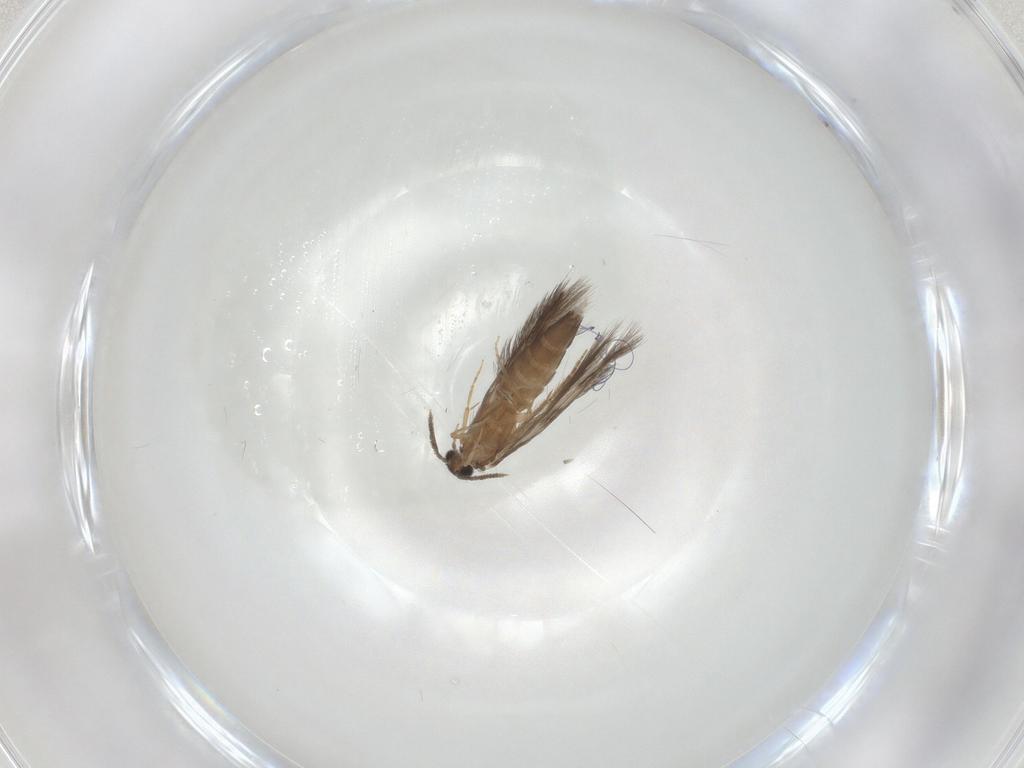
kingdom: Animalia
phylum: Arthropoda
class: Insecta
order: Trichoptera
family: Hydroptilidae
